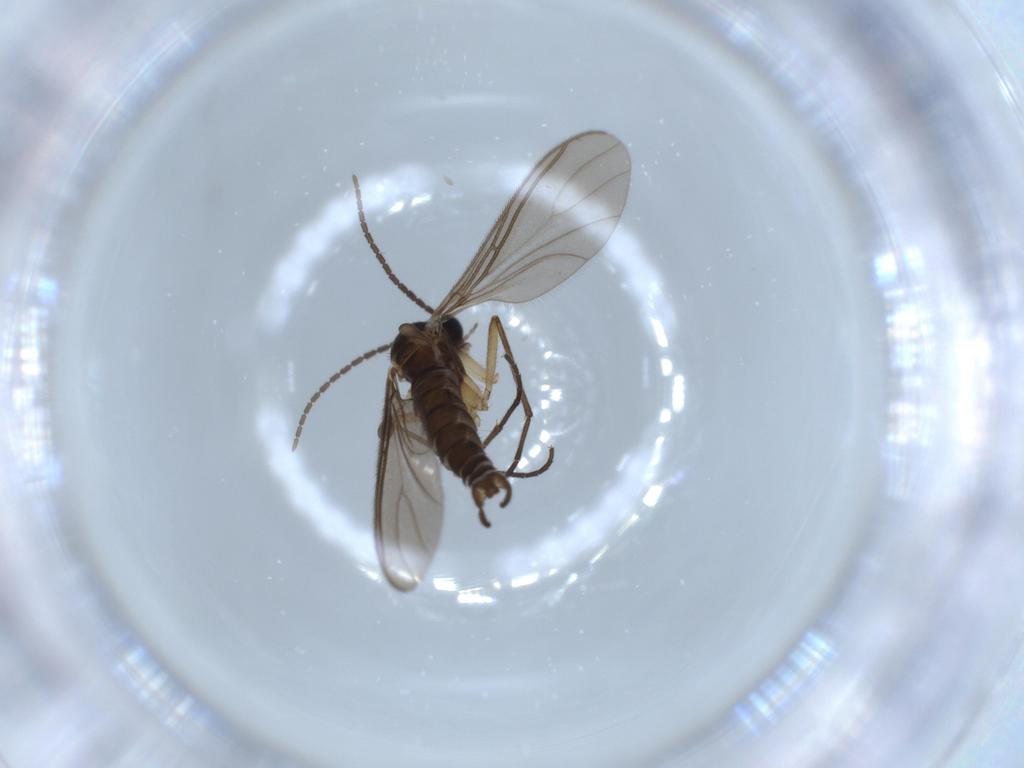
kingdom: Animalia
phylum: Arthropoda
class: Insecta
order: Diptera
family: Sciaridae
